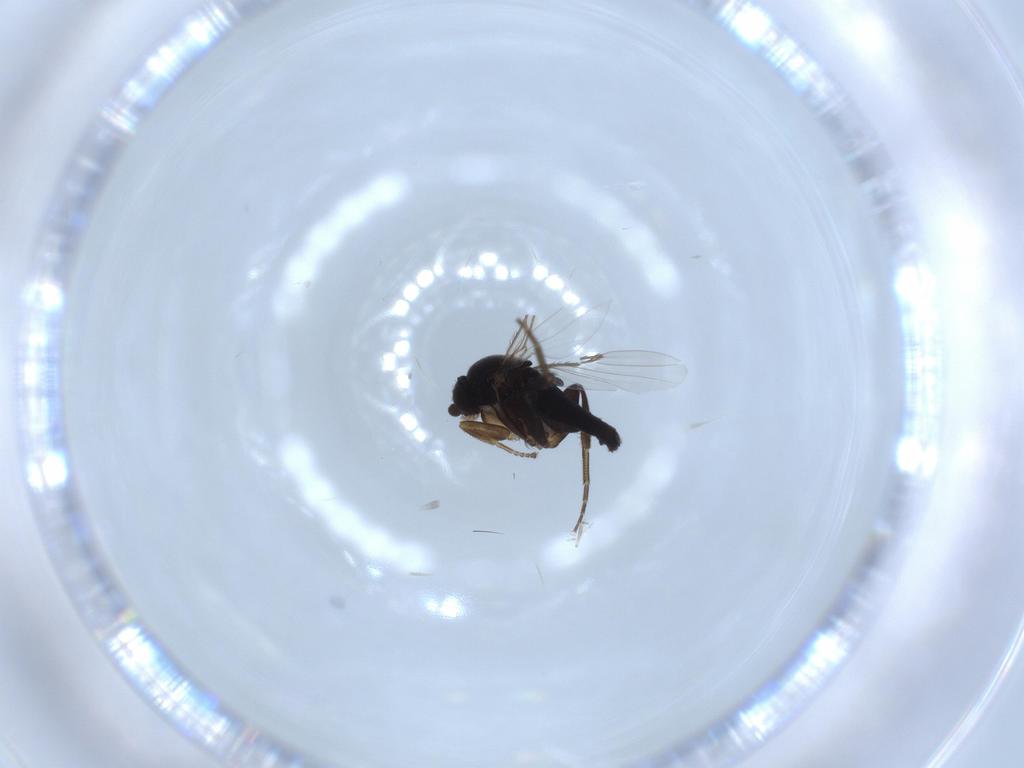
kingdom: Animalia
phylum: Arthropoda
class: Insecta
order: Diptera
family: Phoridae
